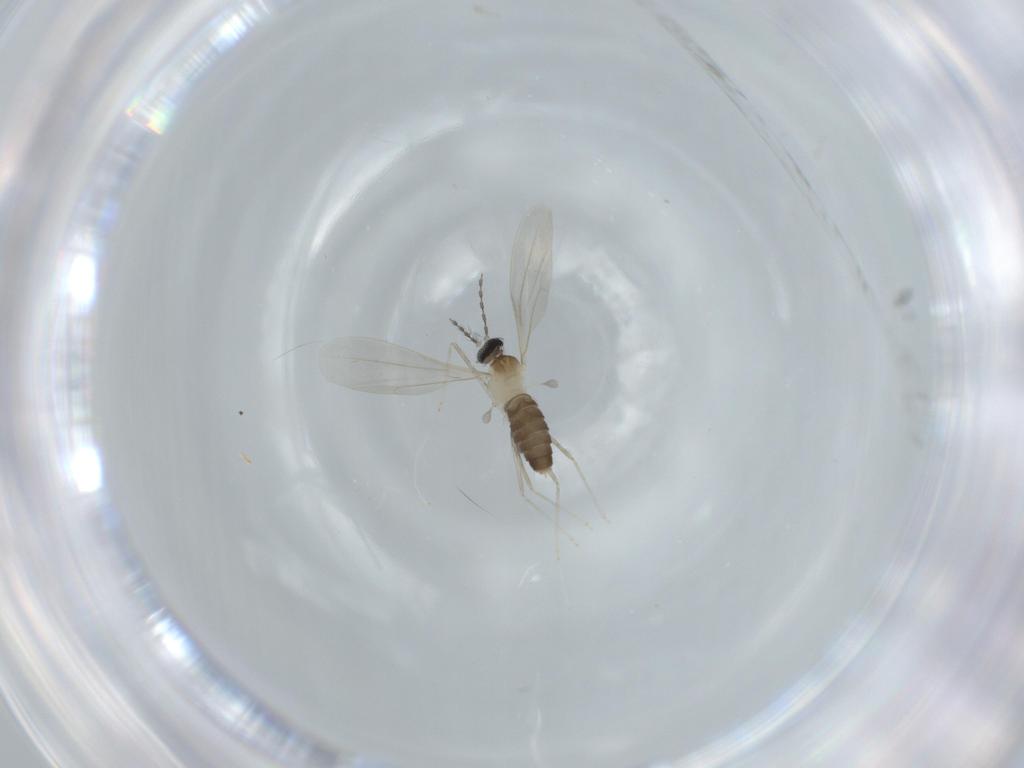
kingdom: Animalia
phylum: Arthropoda
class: Insecta
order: Diptera
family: Cecidomyiidae
